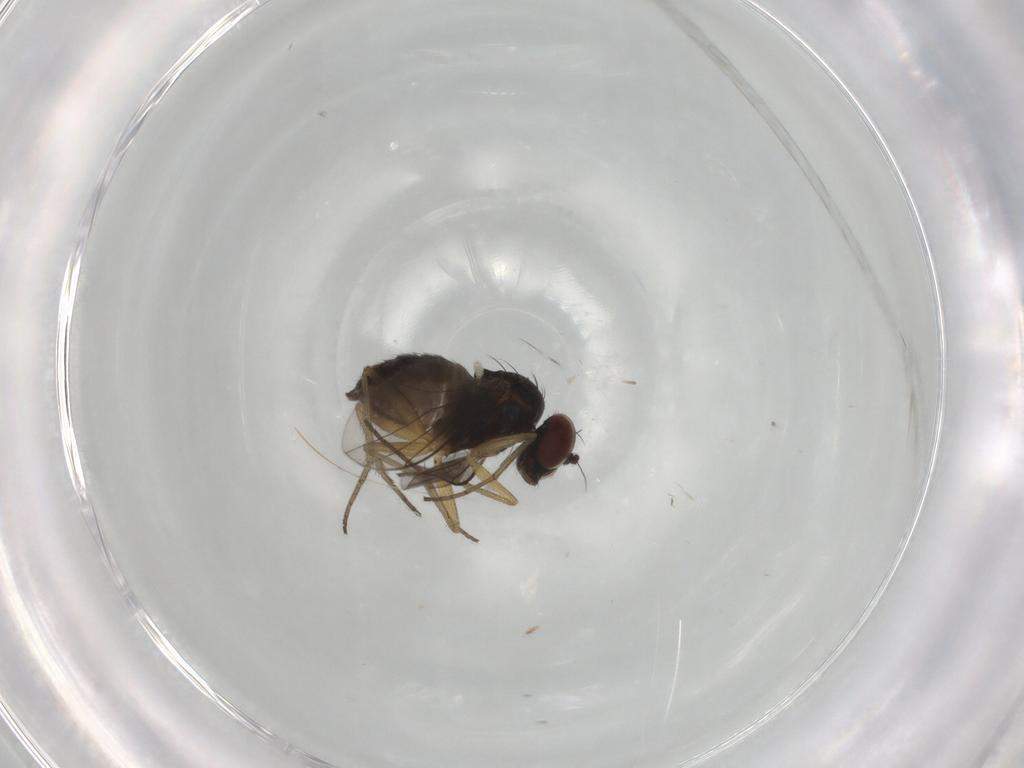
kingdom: Animalia
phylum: Arthropoda
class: Insecta
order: Diptera
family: Dolichopodidae
